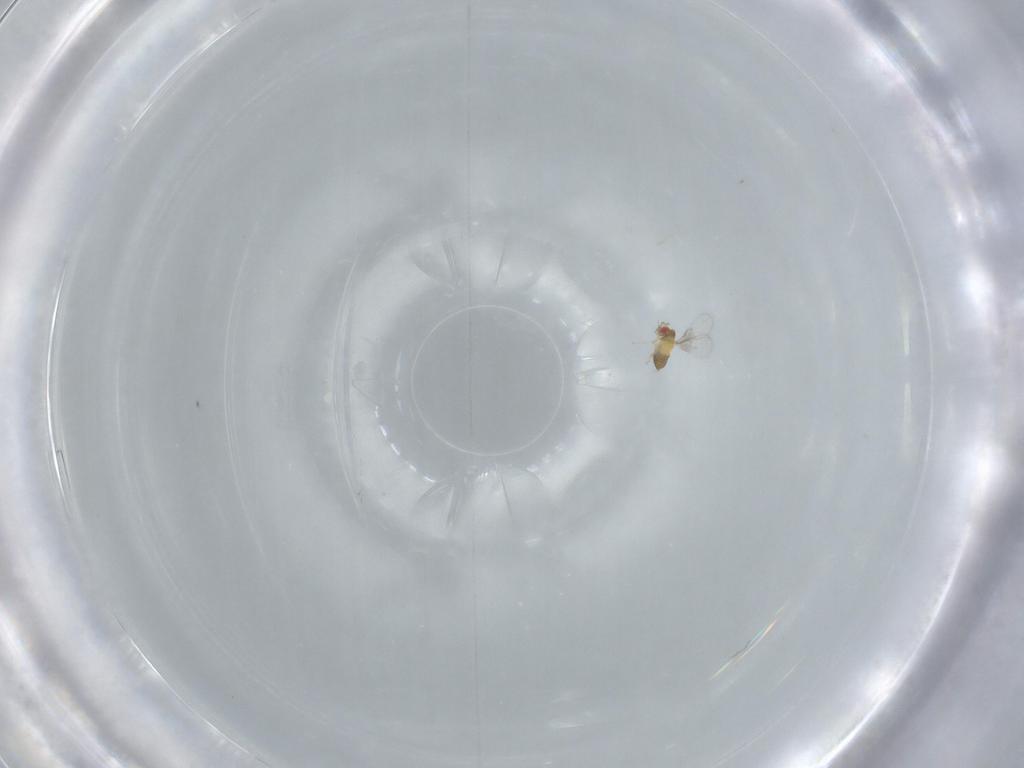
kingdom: Animalia
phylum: Arthropoda
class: Insecta
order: Hymenoptera
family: Trichogrammatidae
